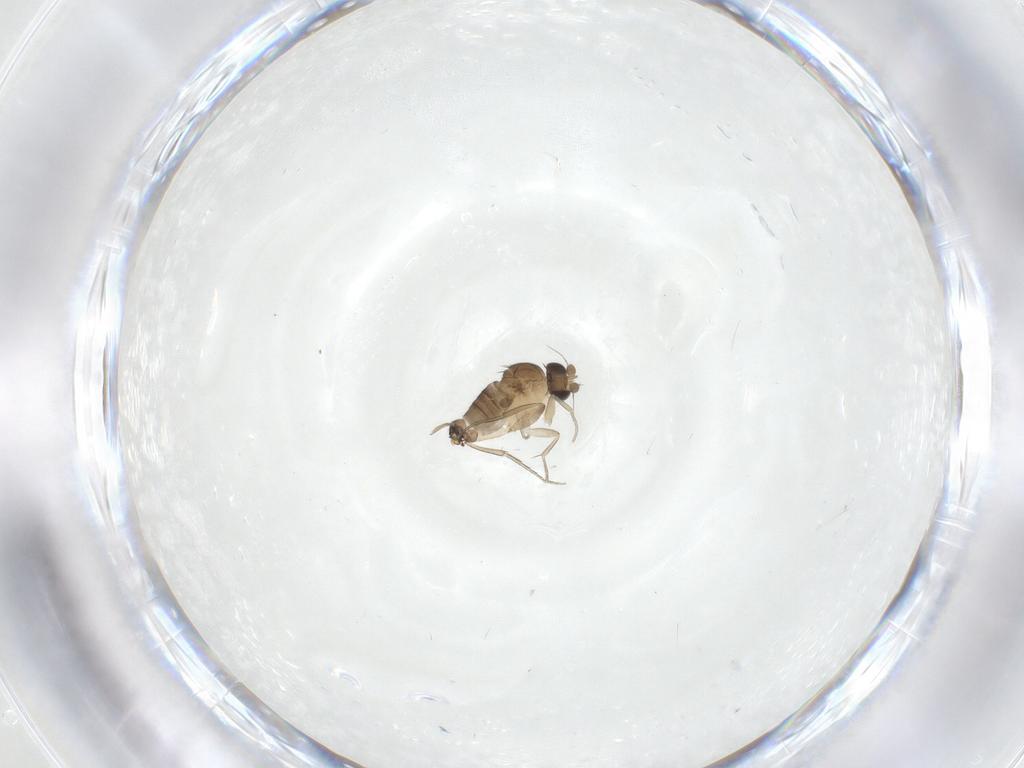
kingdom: Animalia
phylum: Arthropoda
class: Insecta
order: Diptera
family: Phoridae
